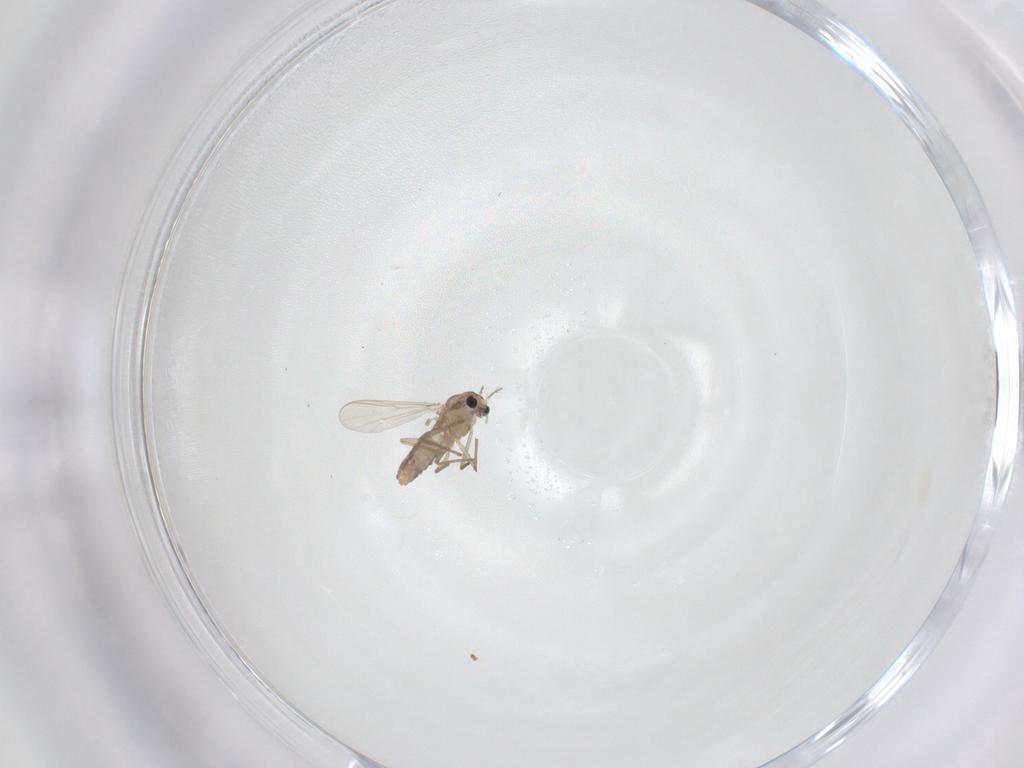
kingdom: Animalia
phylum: Arthropoda
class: Insecta
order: Diptera
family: Chironomidae
